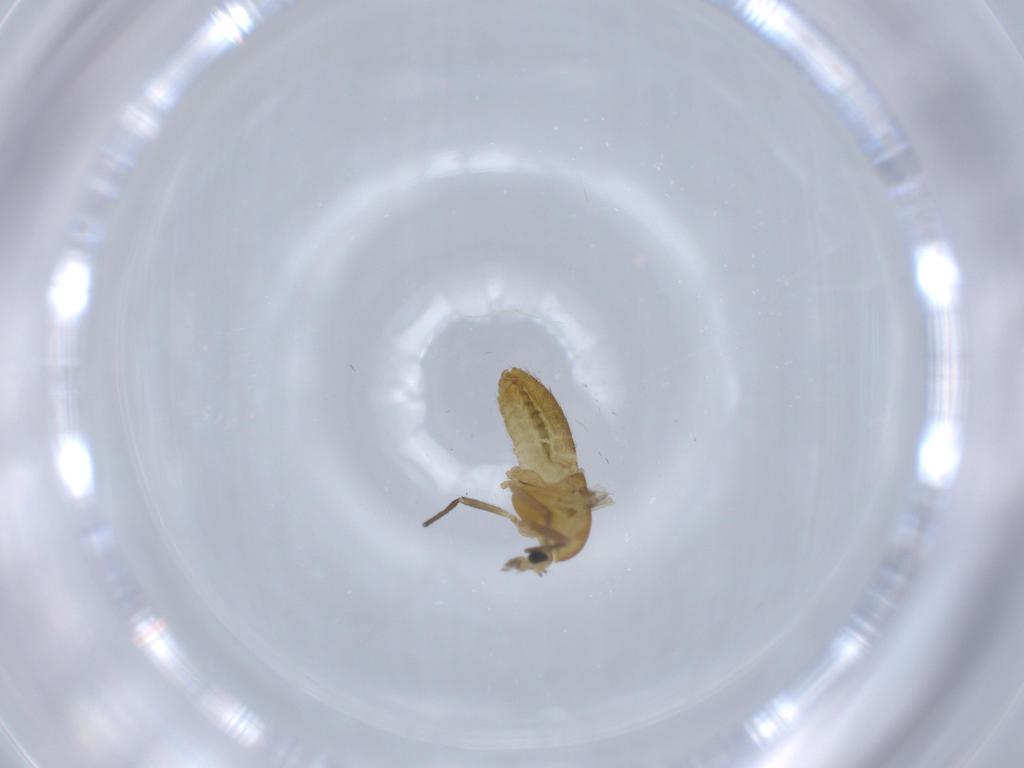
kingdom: Animalia
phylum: Arthropoda
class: Insecta
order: Diptera
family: Chironomidae
